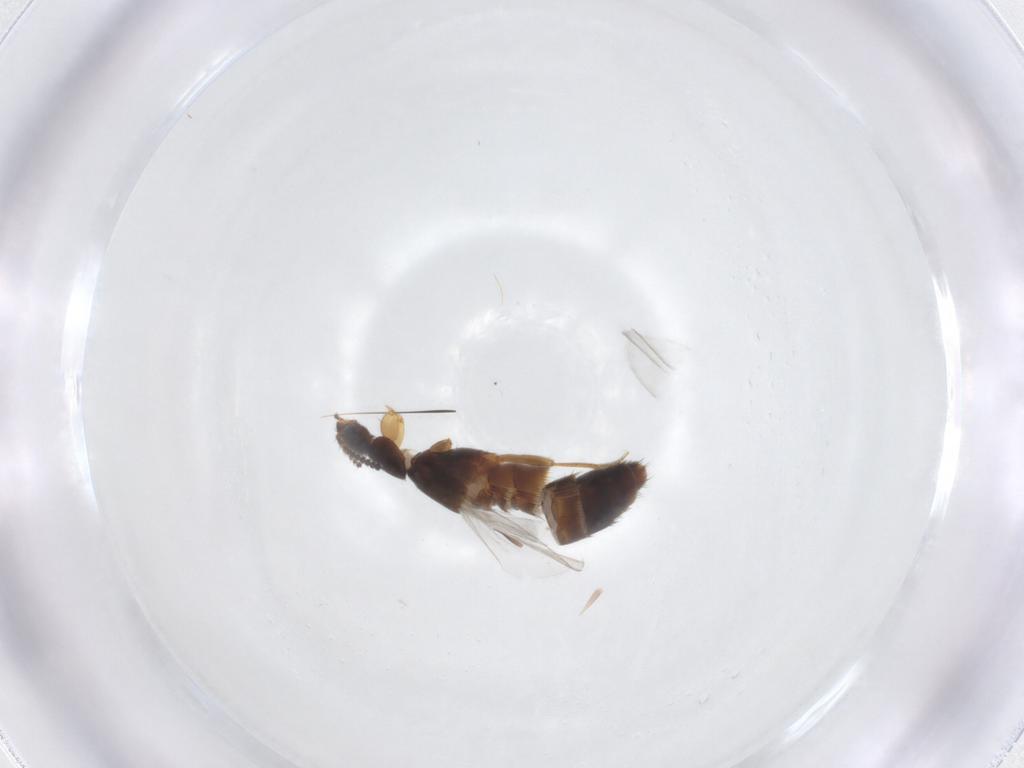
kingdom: Animalia
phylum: Arthropoda
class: Insecta
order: Coleoptera
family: Staphylinidae
